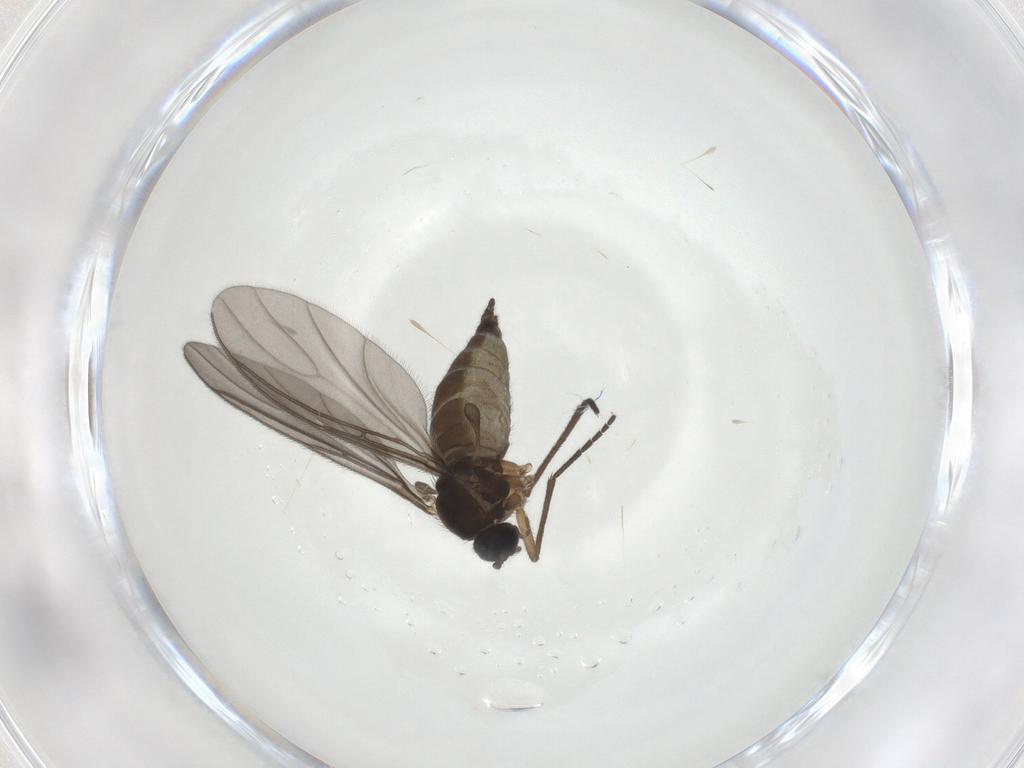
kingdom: Animalia
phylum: Arthropoda
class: Insecta
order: Diptera
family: Sciaridae
